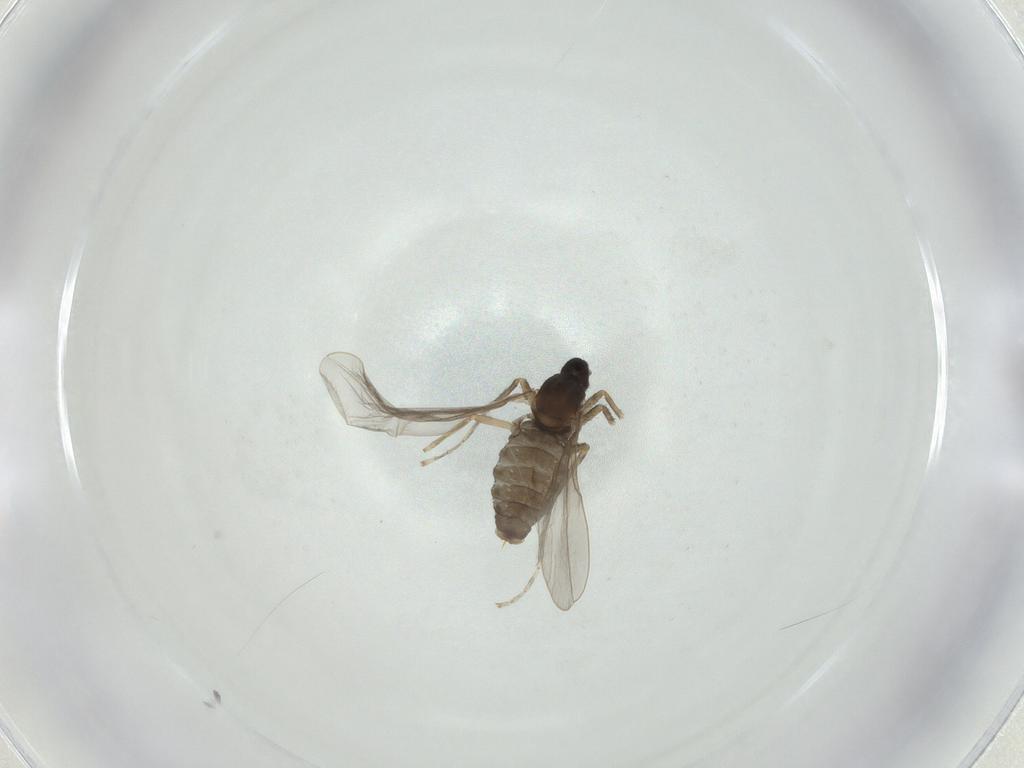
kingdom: Animalia
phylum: Arthropoda
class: Insecta
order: Diptera
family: Cecidomyiidae
